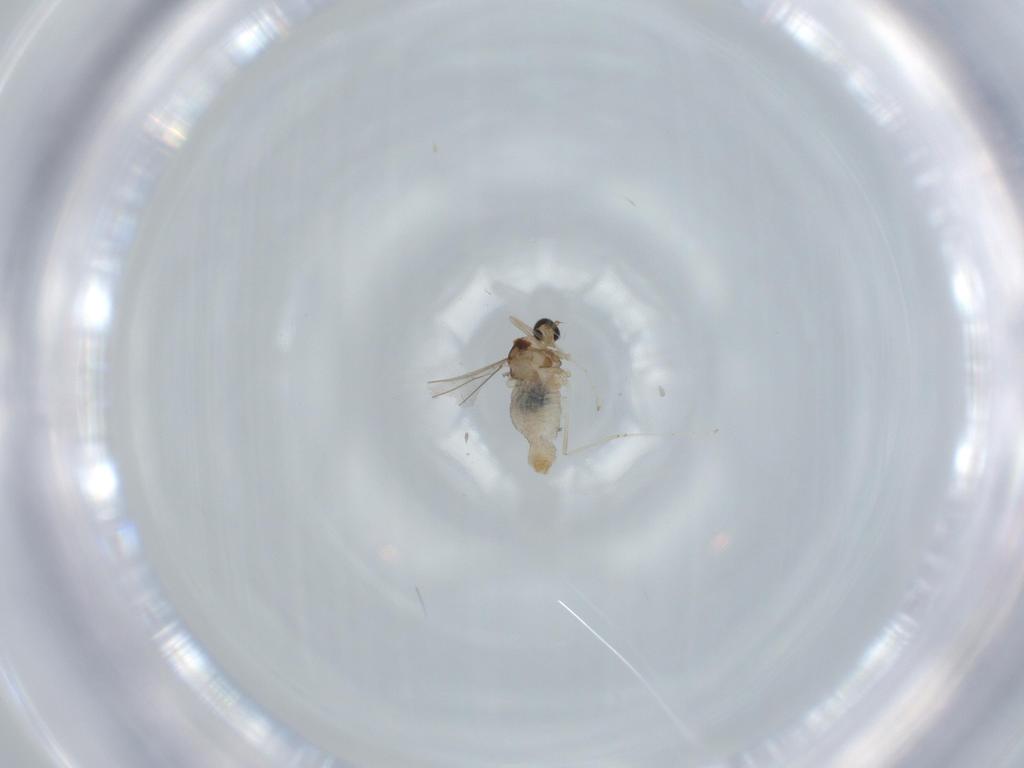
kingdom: Animalia
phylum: Arthropoda
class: Insecta
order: Diptera
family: Cecidomyiidae
